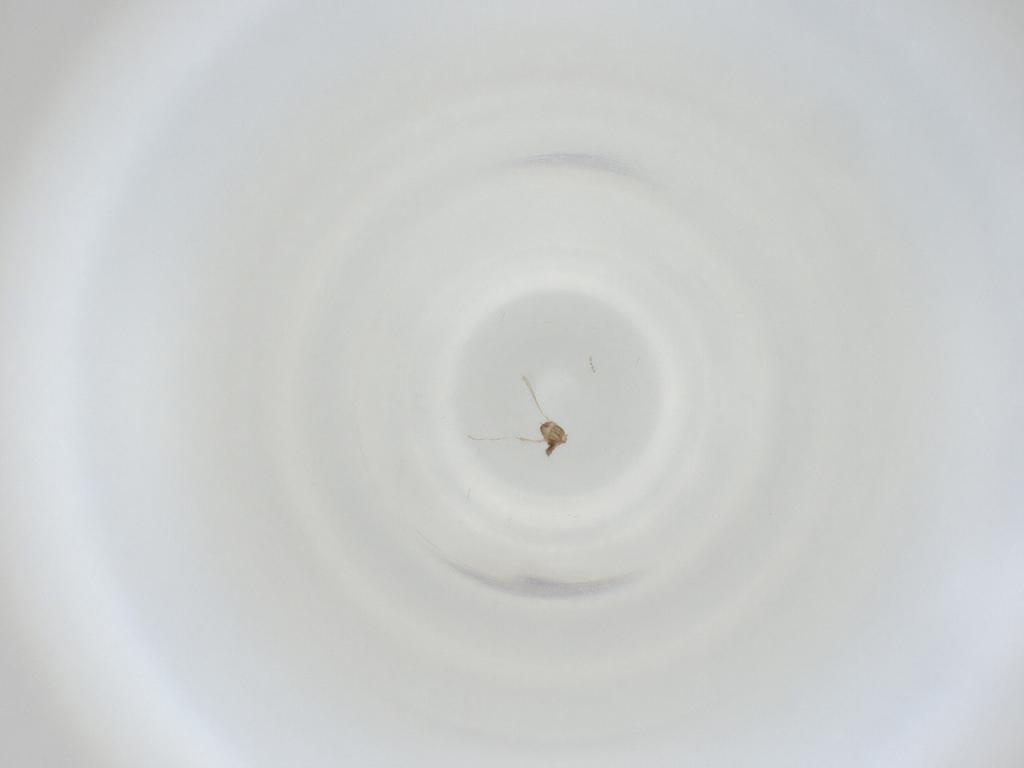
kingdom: Animalia
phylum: Arthropoda
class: Insecta
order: Diptera
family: Cecidomyiidae
